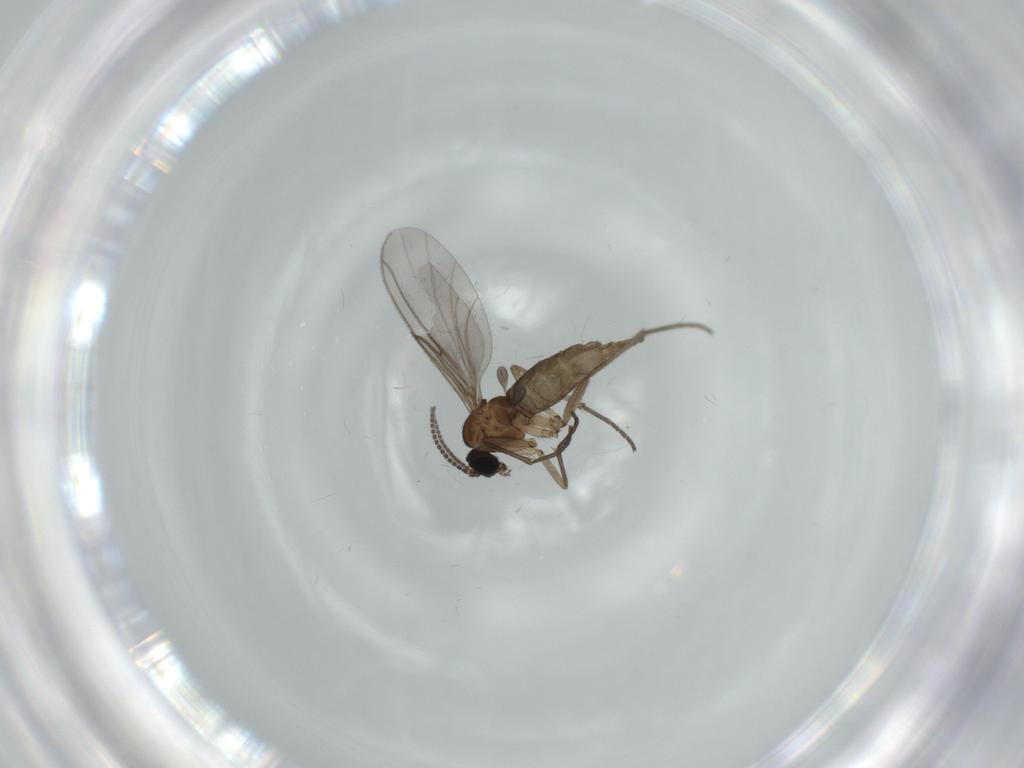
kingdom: Animalia
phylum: Arthropoda
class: Insecta
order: Diptera
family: Sciaridae
